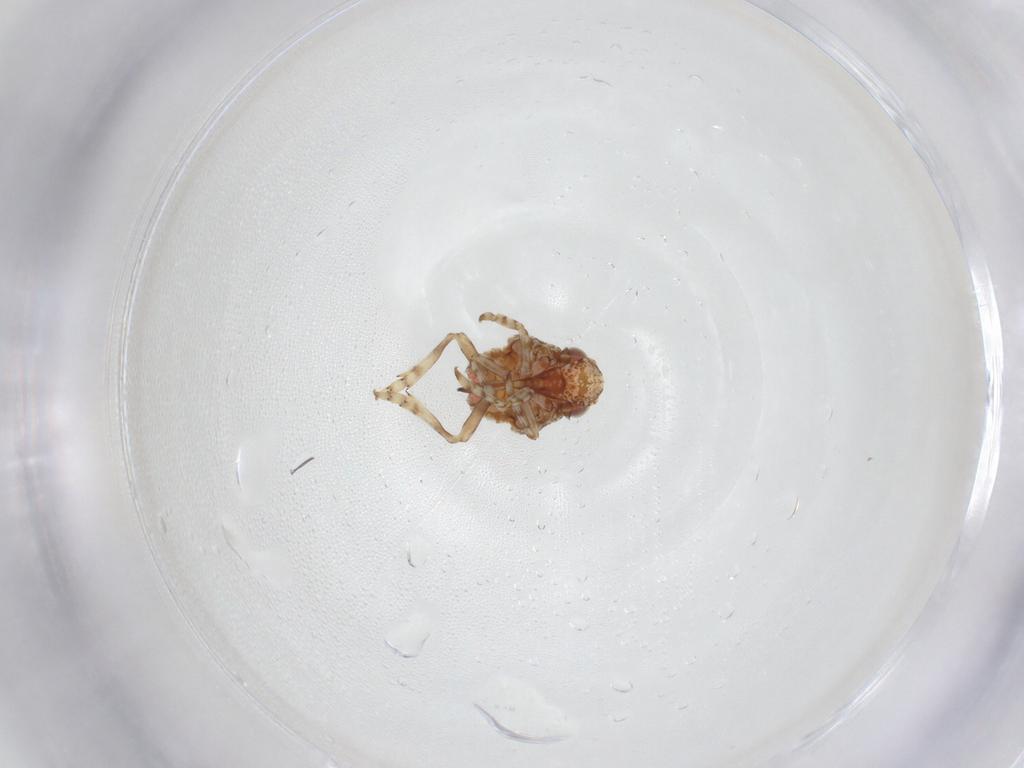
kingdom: Animalia
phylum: Arthropoda
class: Insecta
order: Hemiptera
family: Nogodinidae
